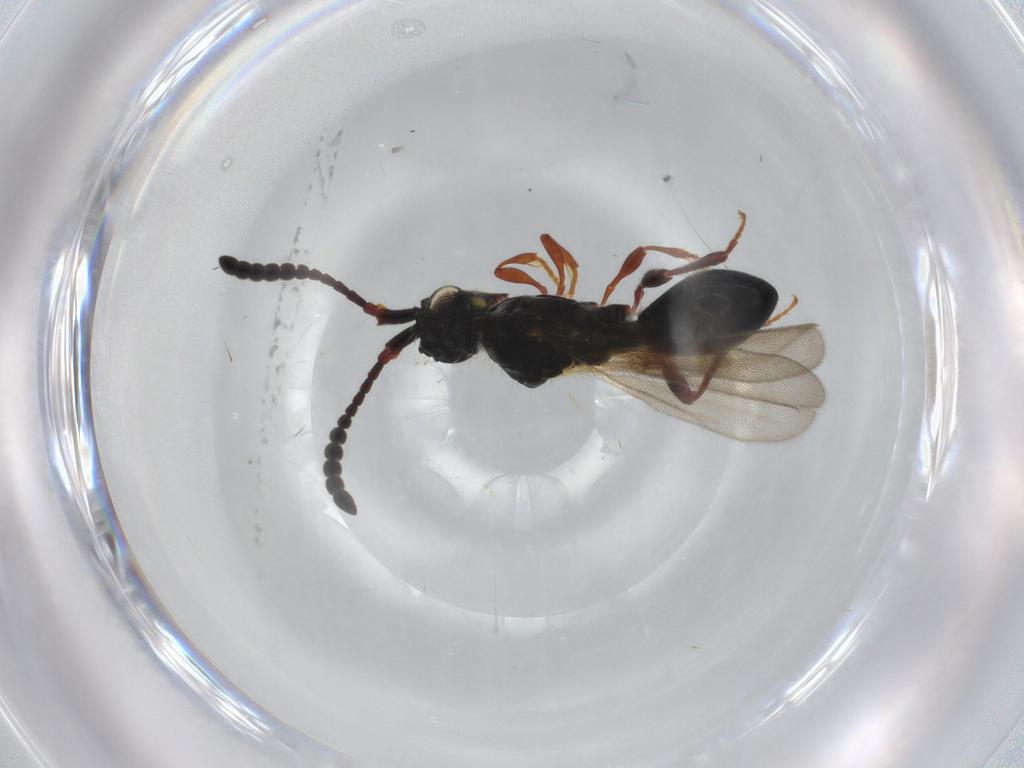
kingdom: Animalia
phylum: Arthropoda
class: Insecta
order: Hymenoptera
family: Diapriidae
